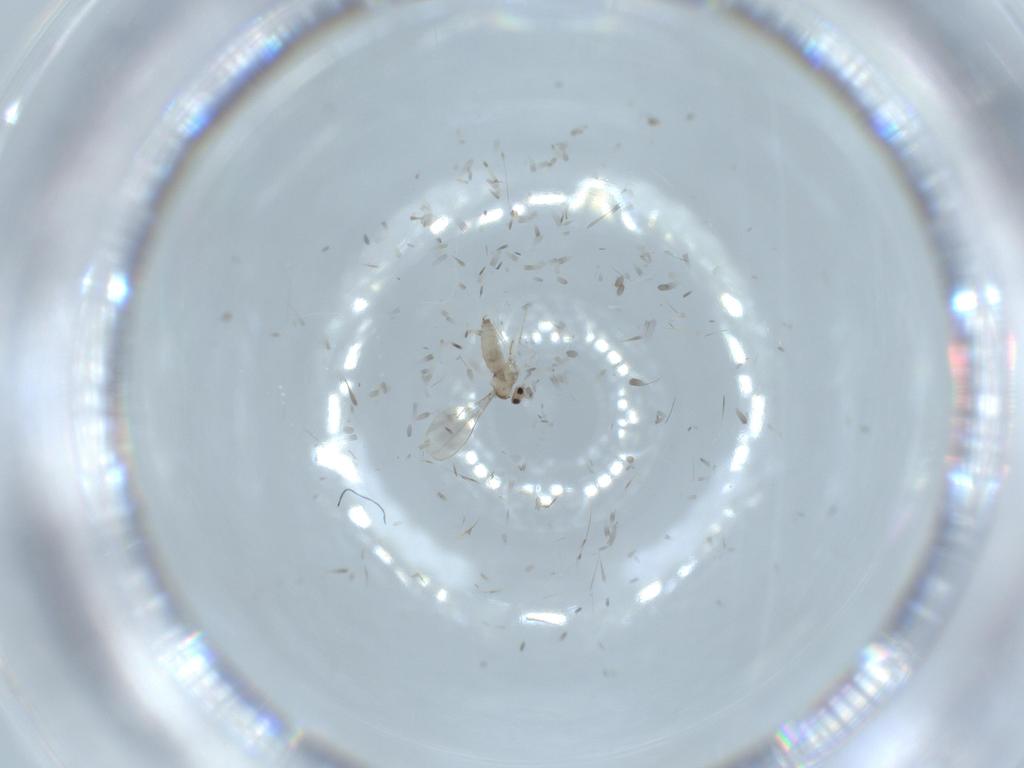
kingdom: Animalia
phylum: Arthropoda
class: Insecta
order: Diptera
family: Cecidomyiidae
